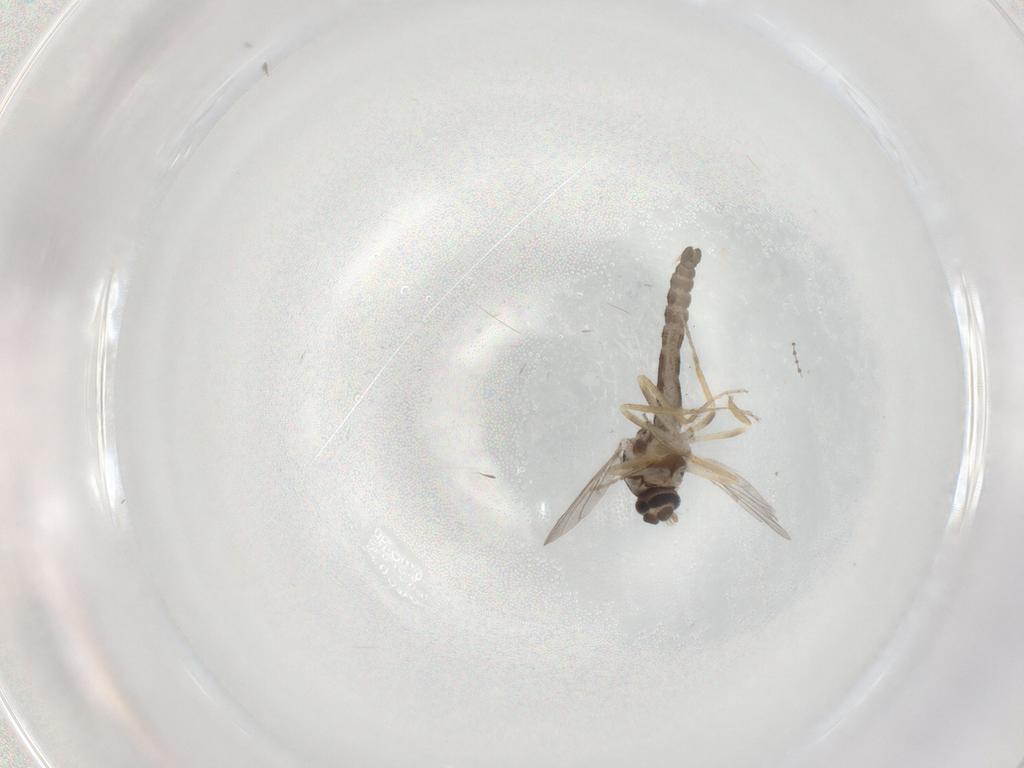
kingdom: Animalia
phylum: Arthropoda
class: Insecta
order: Diptera
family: Ceratopogonidae
